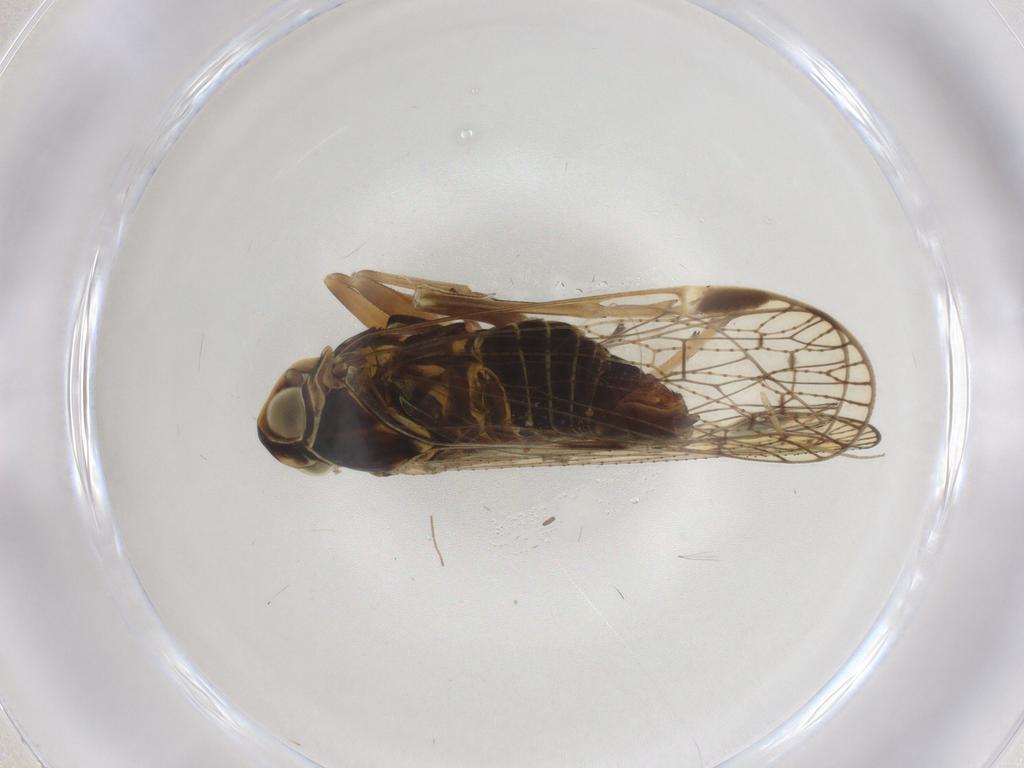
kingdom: Animalia
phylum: Arthropoda
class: Insecta
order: Hemiptera
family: Cixiidae
